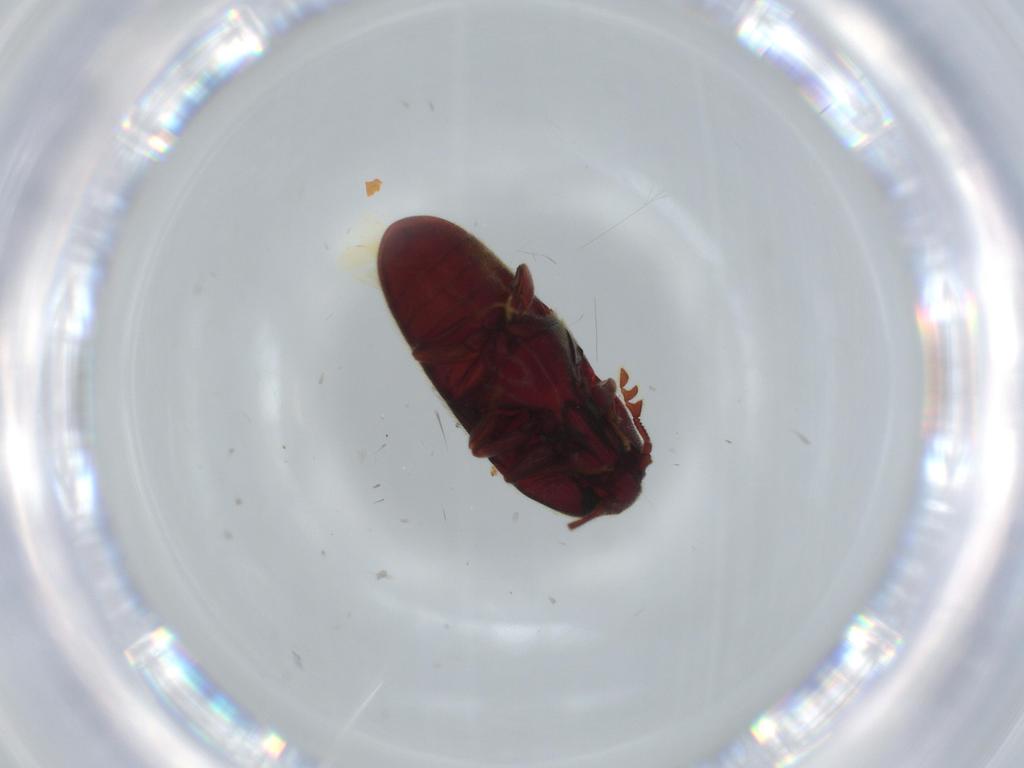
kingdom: Animalia
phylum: Arthropoda
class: Insecta
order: Coleoptera
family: Throscidae
